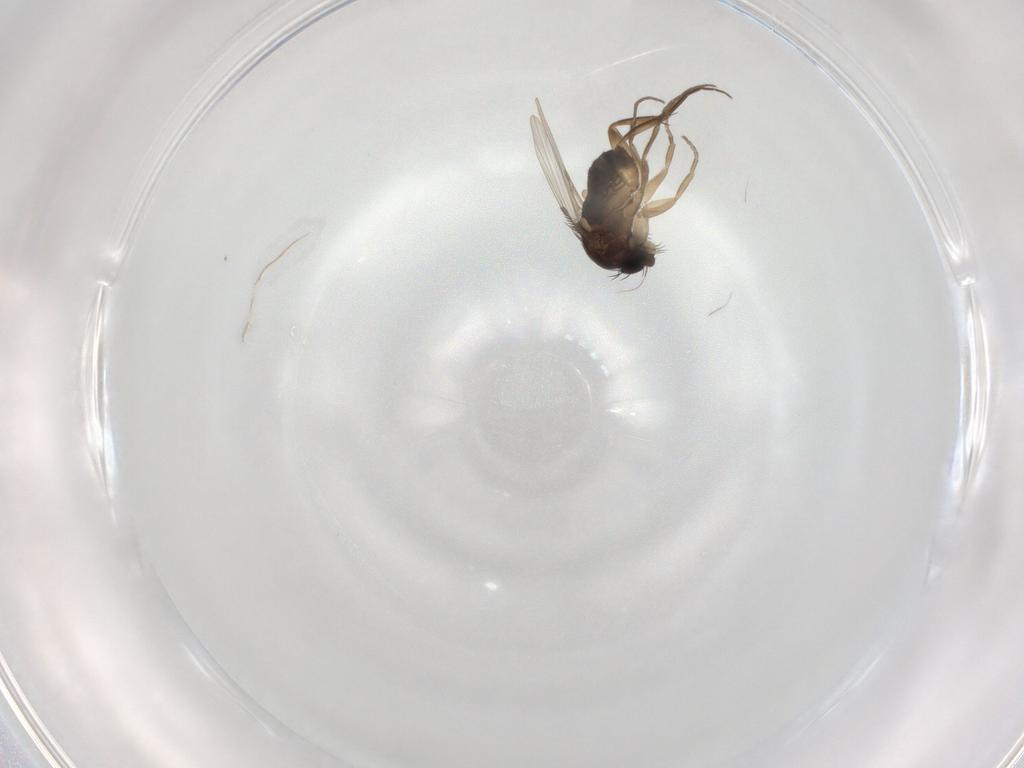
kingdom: Animalia
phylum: Arthropoda
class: Insecta
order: Diptera
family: Phoridae
